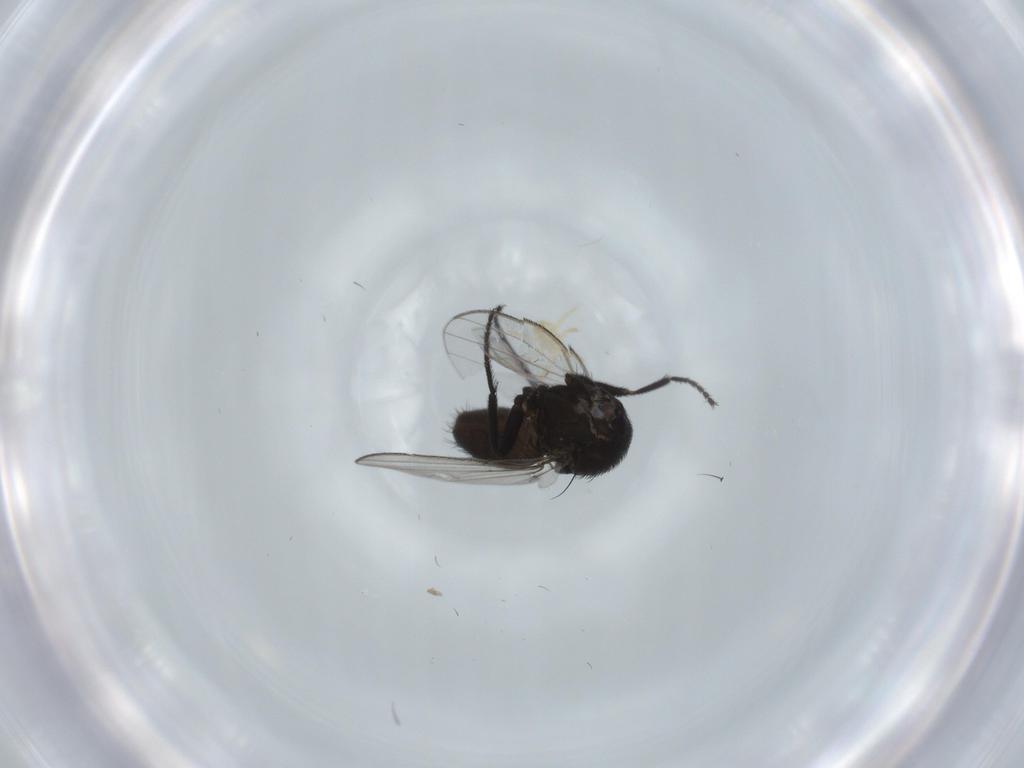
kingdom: Animalia
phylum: Arthropoda
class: Insecta
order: Diptera
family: Milichiidae
